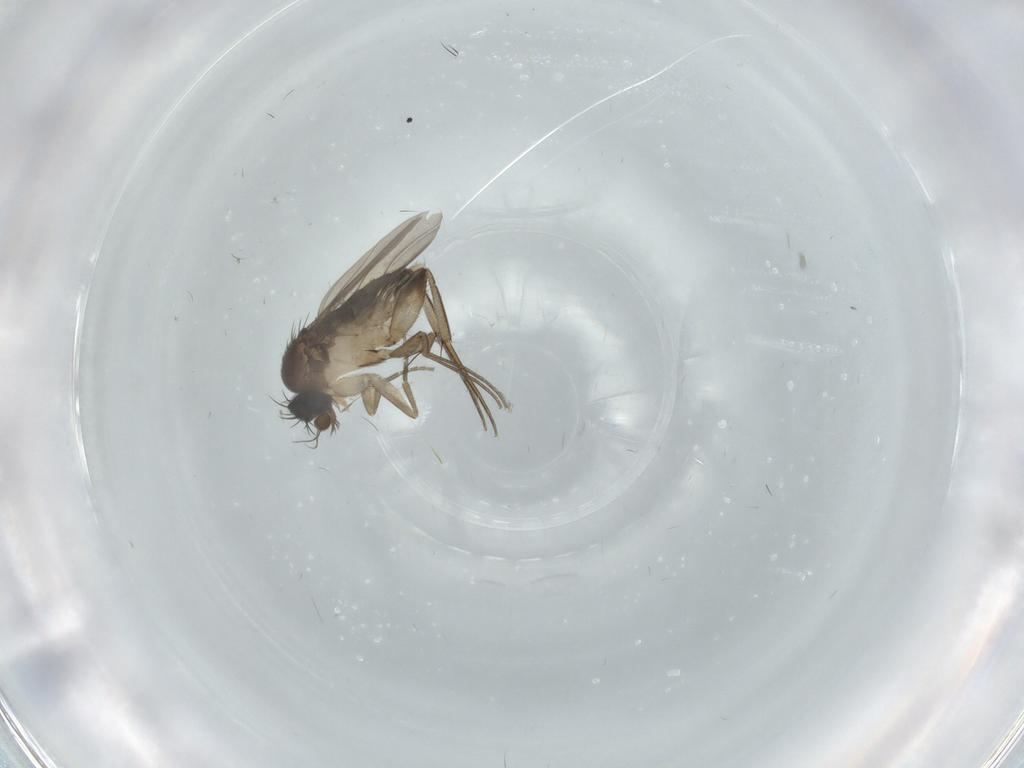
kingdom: Animalia
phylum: Arthropoda
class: Insecta
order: Diptera
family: Phoridae
